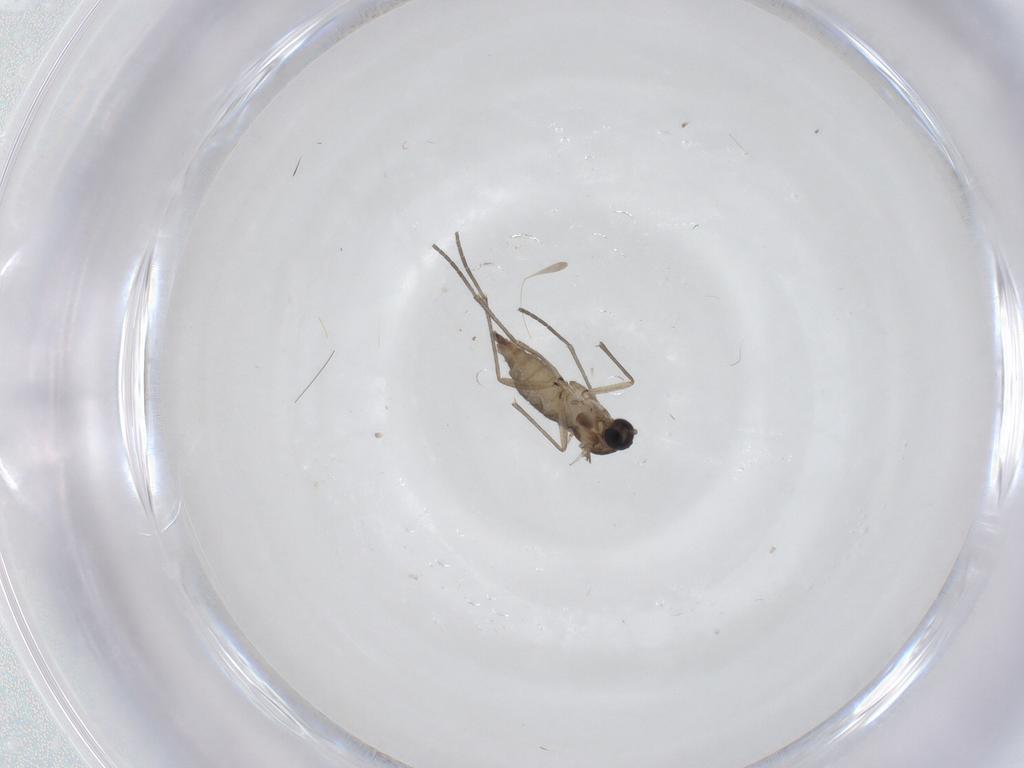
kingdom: Animalia
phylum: Arthropoda
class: Insecta
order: Diptera
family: Sciaridae
